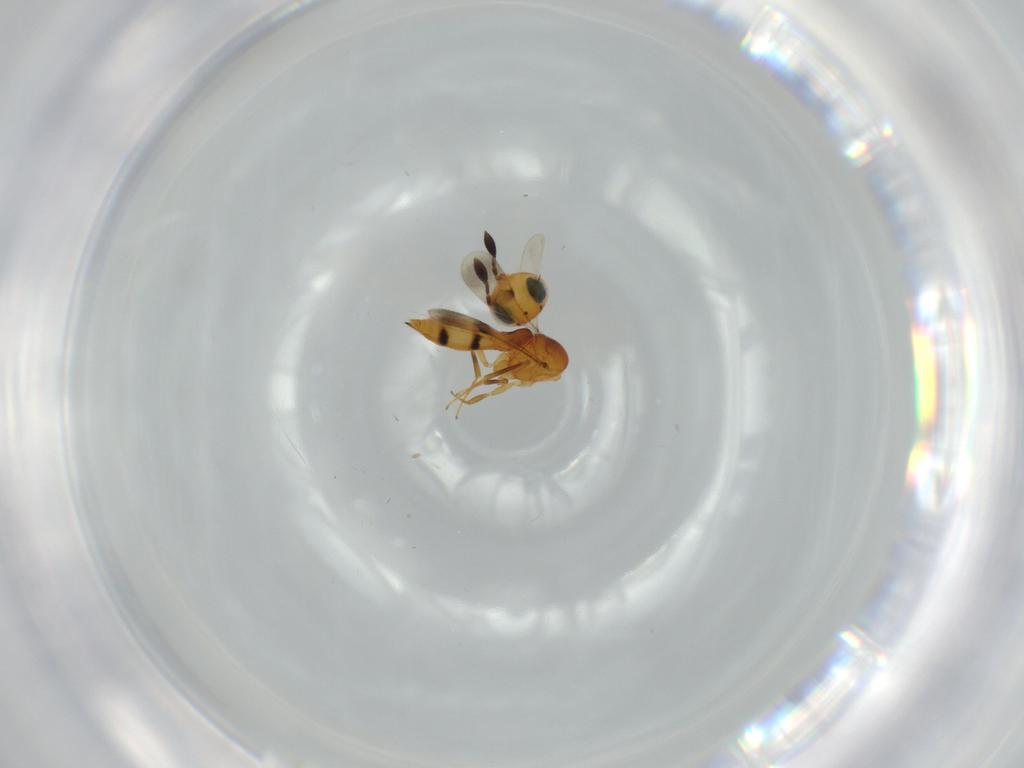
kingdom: Animalia
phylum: Arthropoda
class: Insecta
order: Hymenoptera
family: Scelionidae
